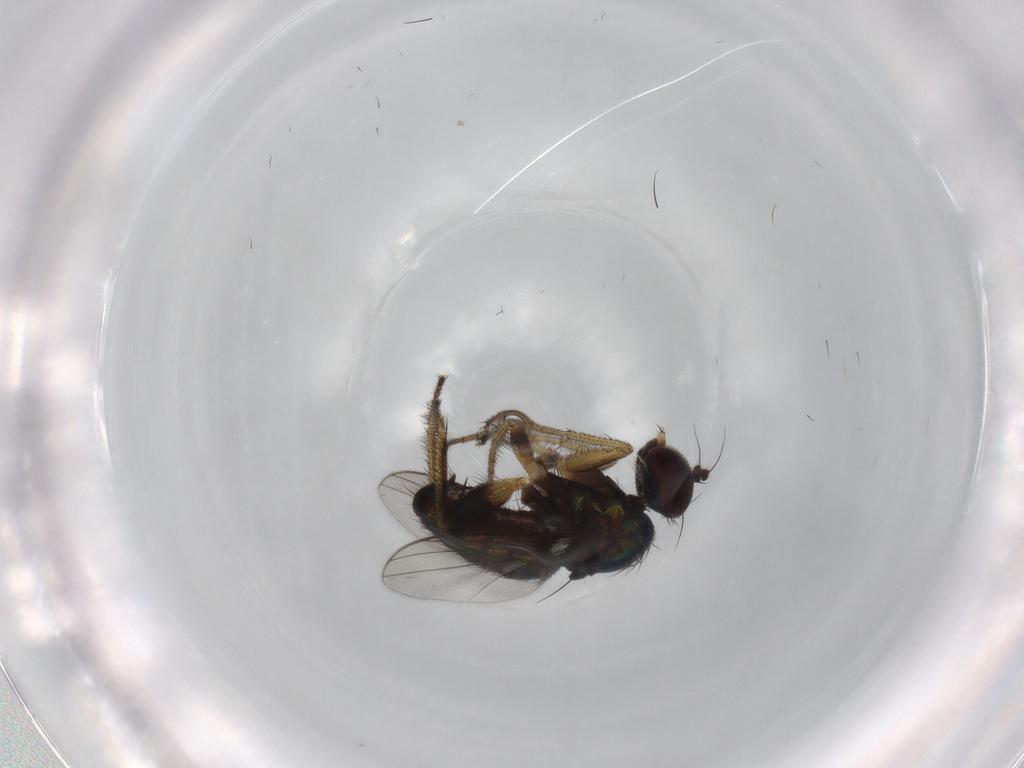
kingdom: Animalia
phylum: Arthropoda
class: Insecta
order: Diptera
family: Dolichopodidae
